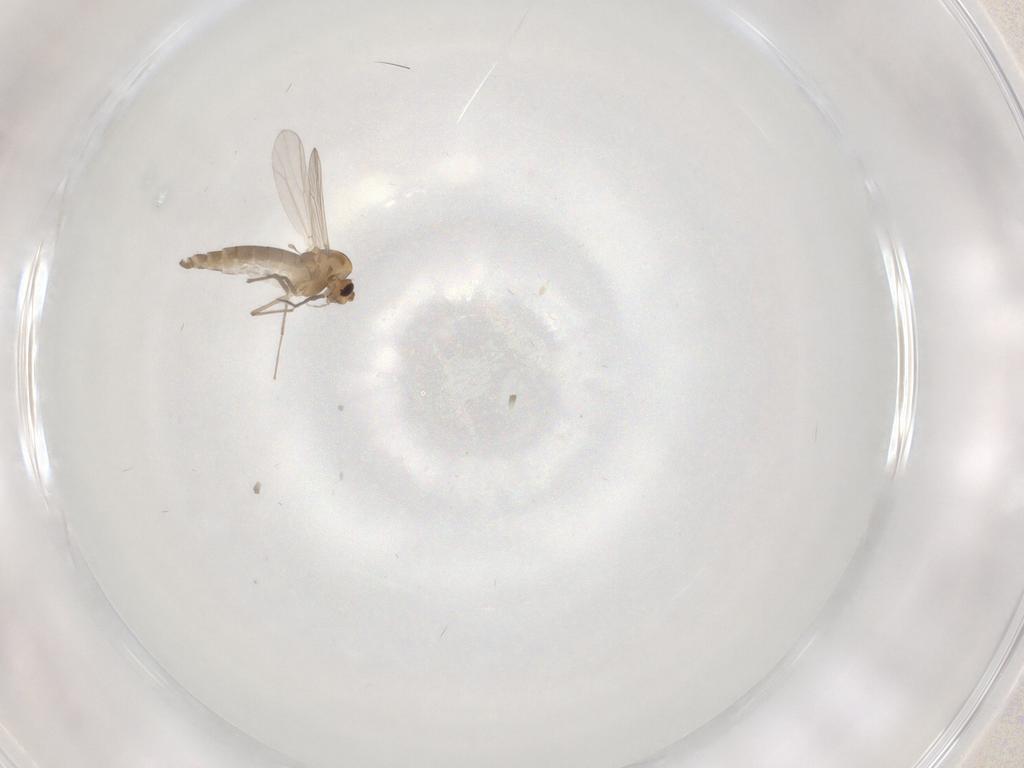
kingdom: Animalia
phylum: Arthropoda
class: Insecta
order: Diptera
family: Chironomidae
